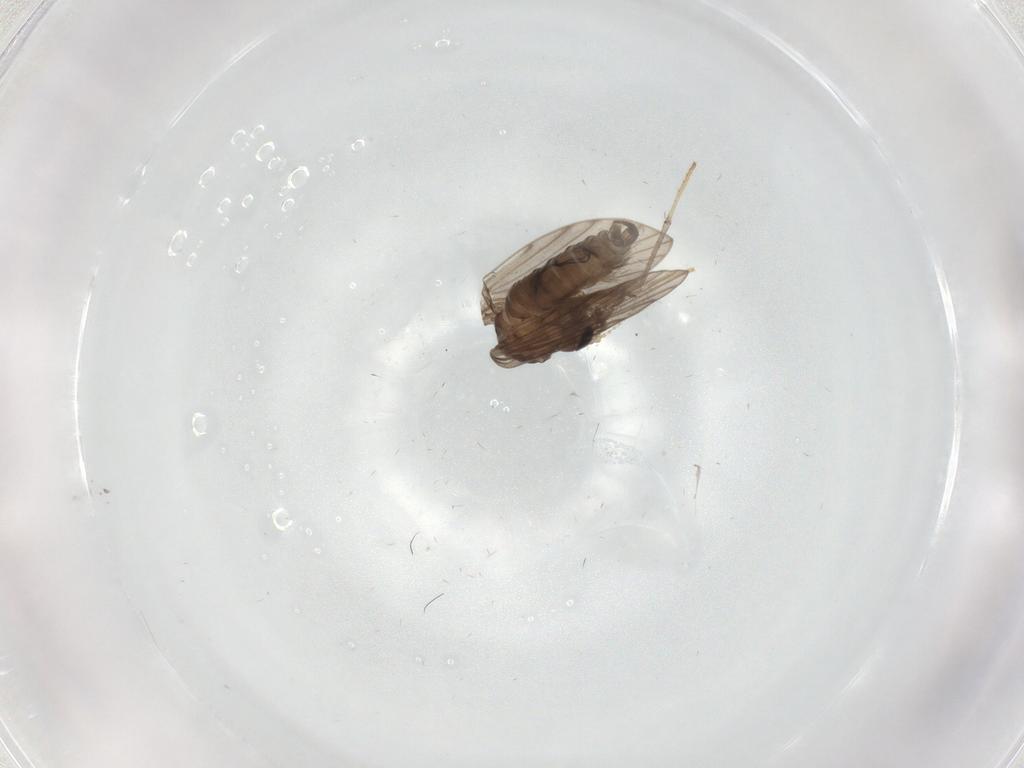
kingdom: Animalia
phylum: Arthropoda
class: Insecta
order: Diptera
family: Psychodidae
